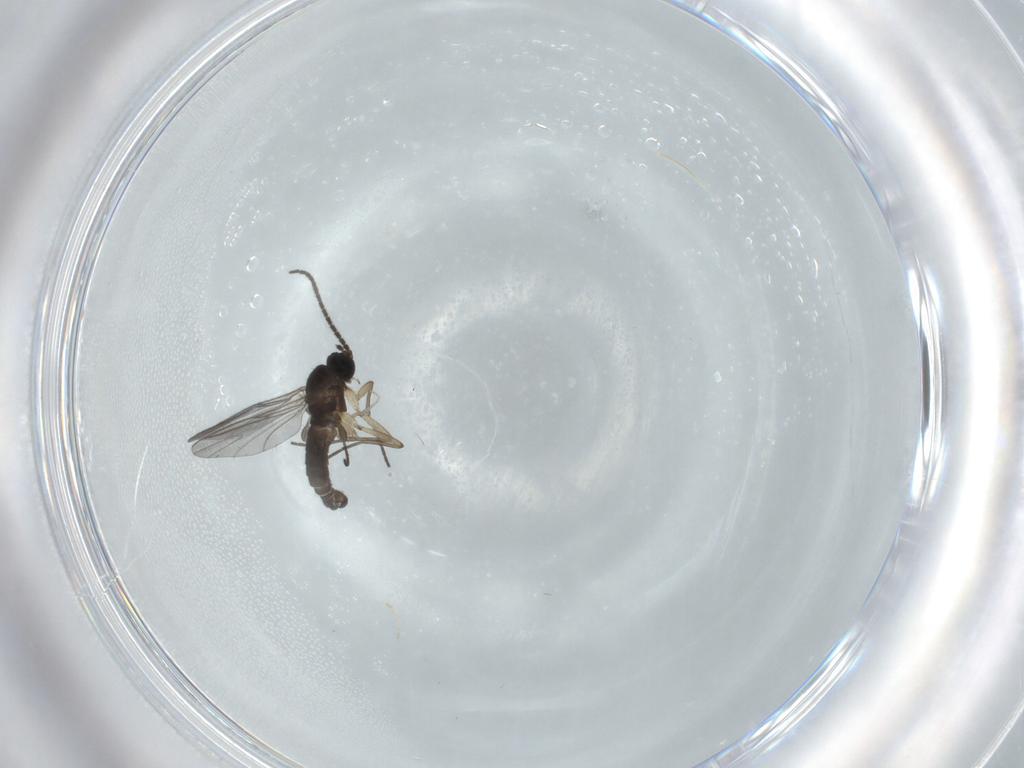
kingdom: Animalia
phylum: Arthropoda
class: Insecta
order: Diptera
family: Sciaridae
